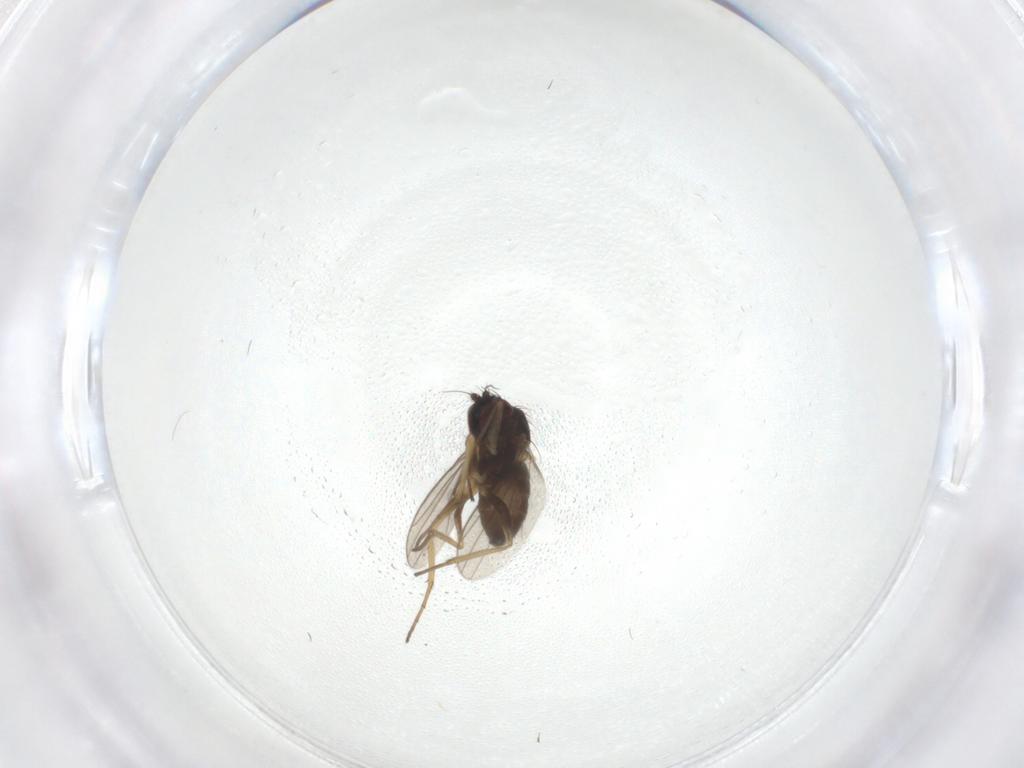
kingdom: Animalia
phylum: Arthropoda
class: Insecta
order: Diptera
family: Dolichopodidae
